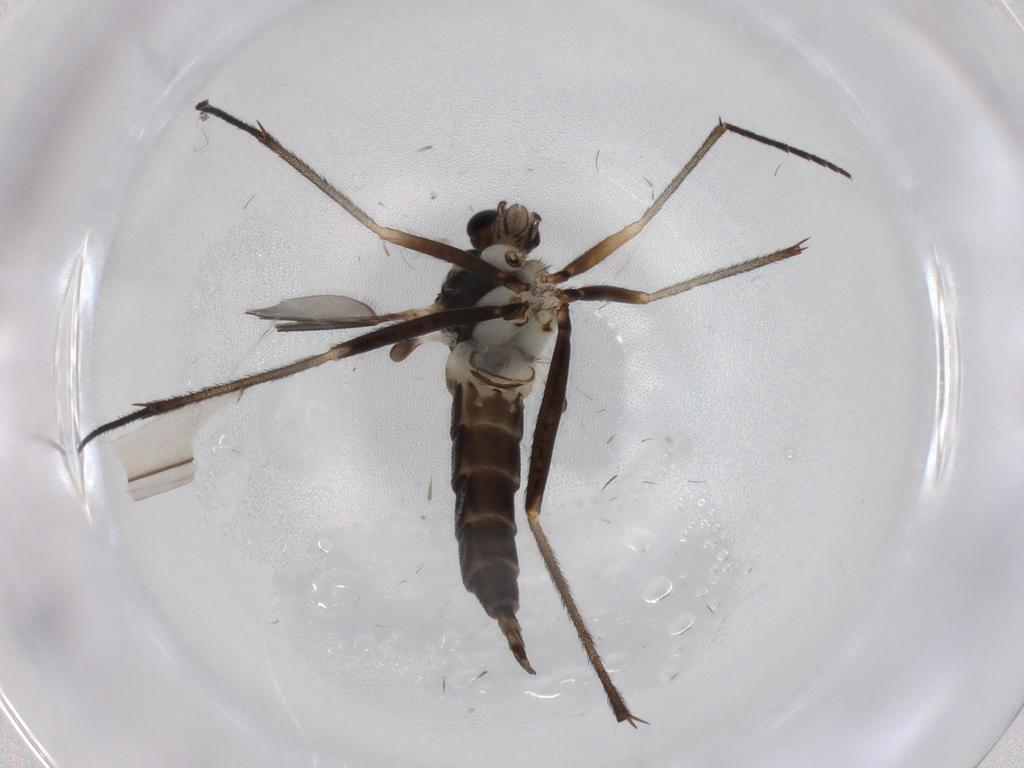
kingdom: Animalia
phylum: Arthropoda
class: Insecta
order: Diptera
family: Sciaridae
